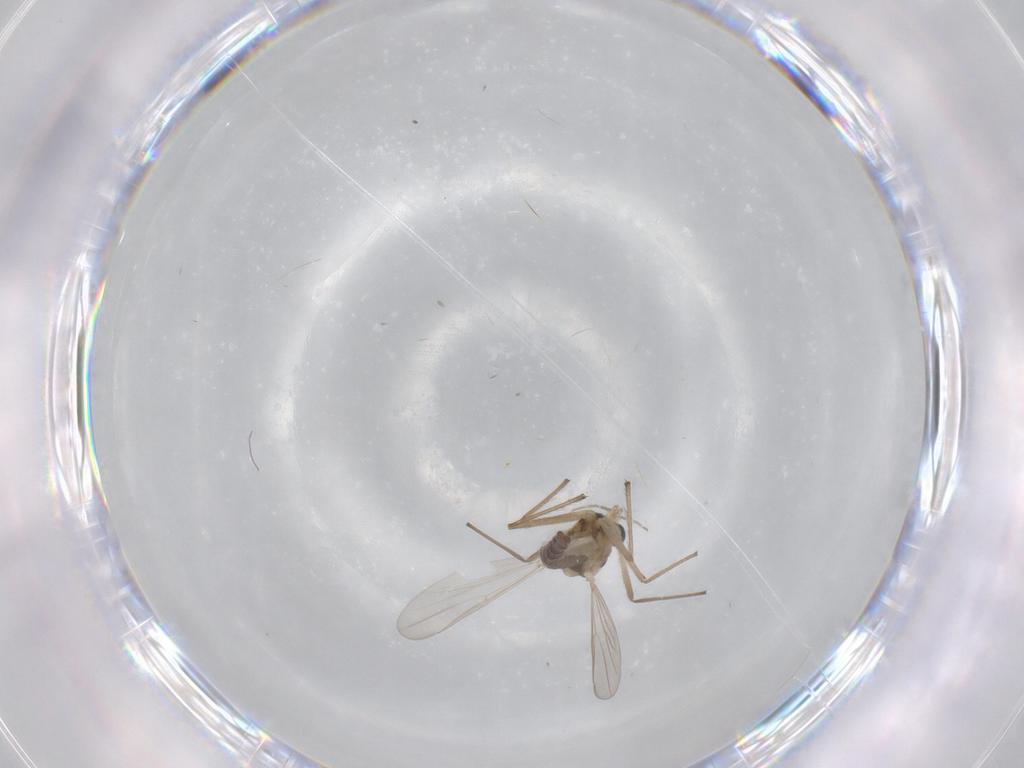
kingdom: Animalia
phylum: Arthropoda
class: Insecta
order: Diptera
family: Chironomidae
